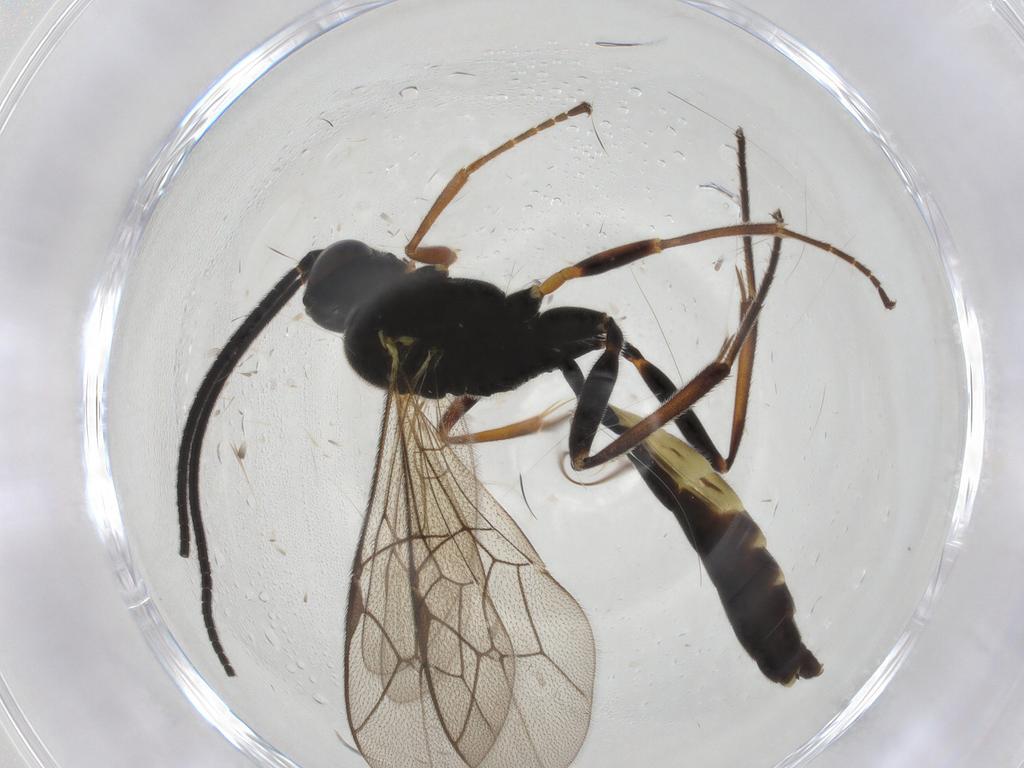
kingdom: Animalia
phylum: Arthropoda
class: Insecta
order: Hymenoptera
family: Ichneumonidae
